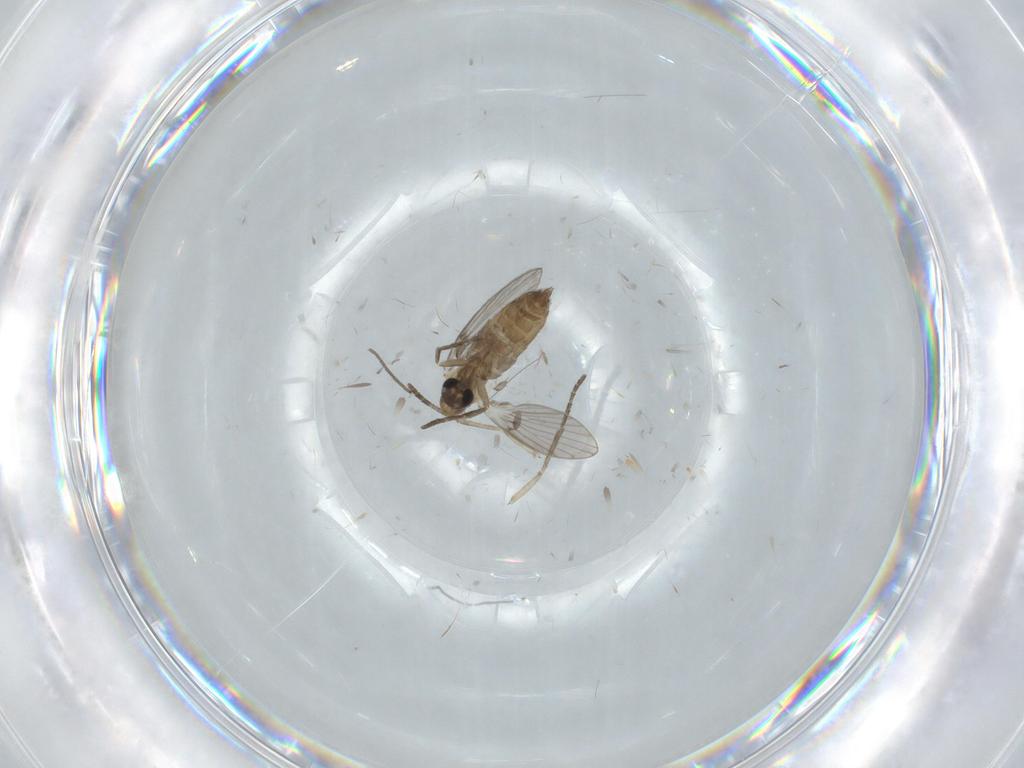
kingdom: Animalia
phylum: Arthropoda
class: Insecta
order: Diptera
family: Psychodidae
